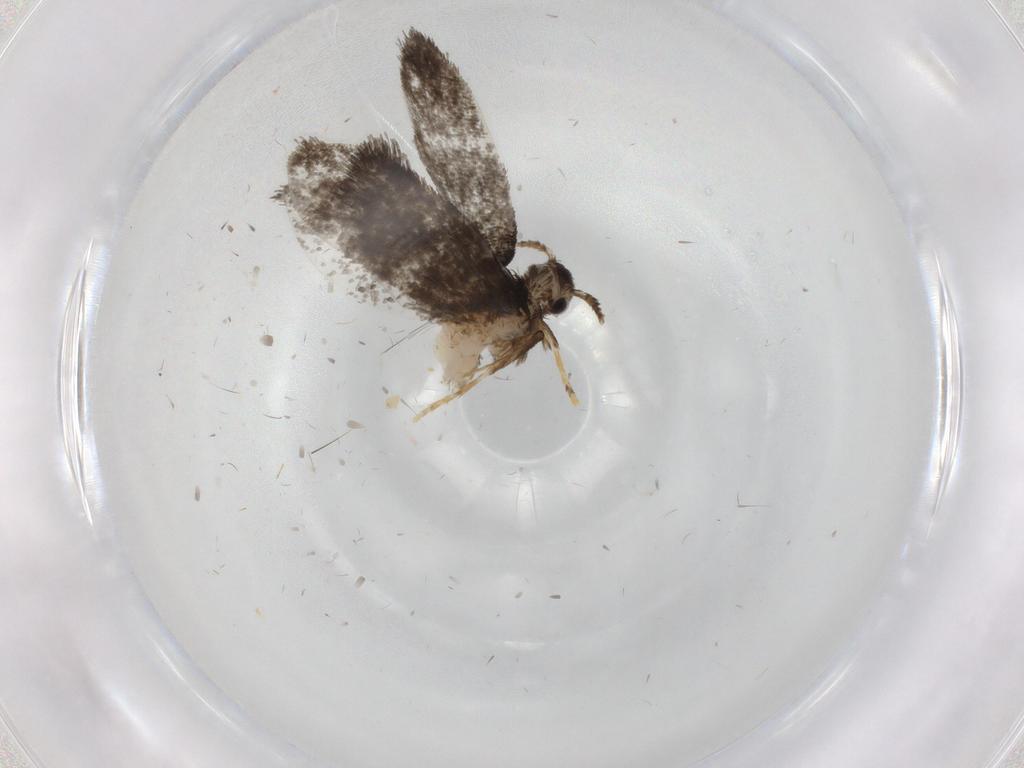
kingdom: Animalia
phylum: Arthropoda
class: Insecta
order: Lepidoptera
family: Psychidae
